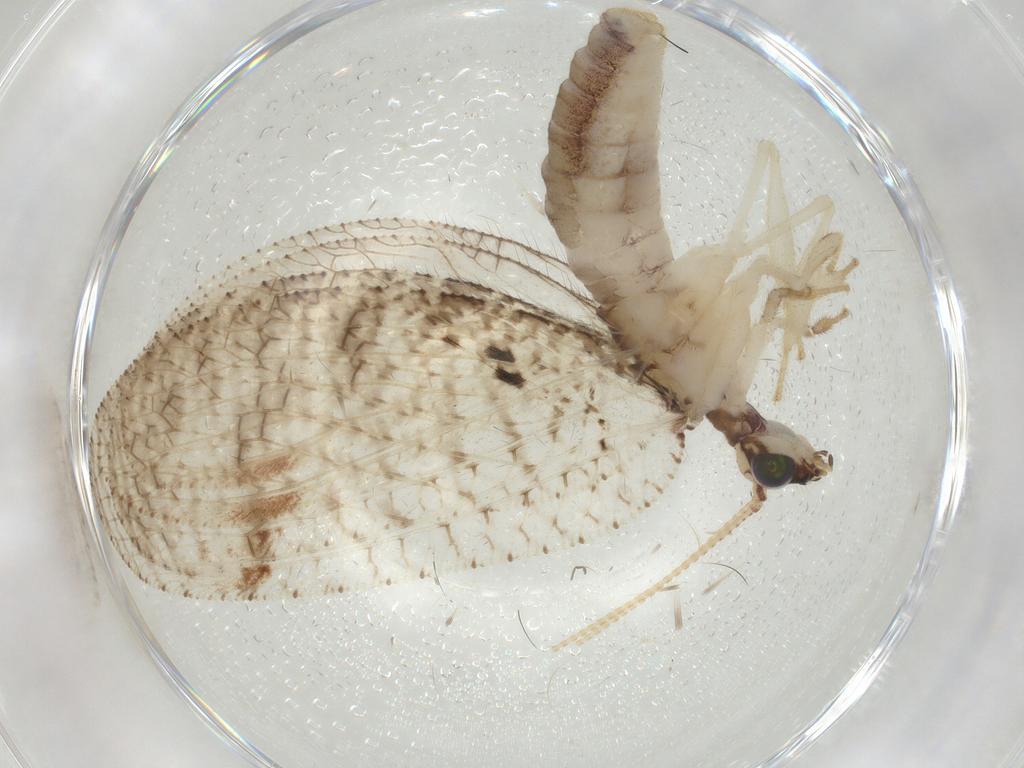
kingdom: Animalia
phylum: Arthropoda
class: Insecta
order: Neuroptera
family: Hemerobiidae
